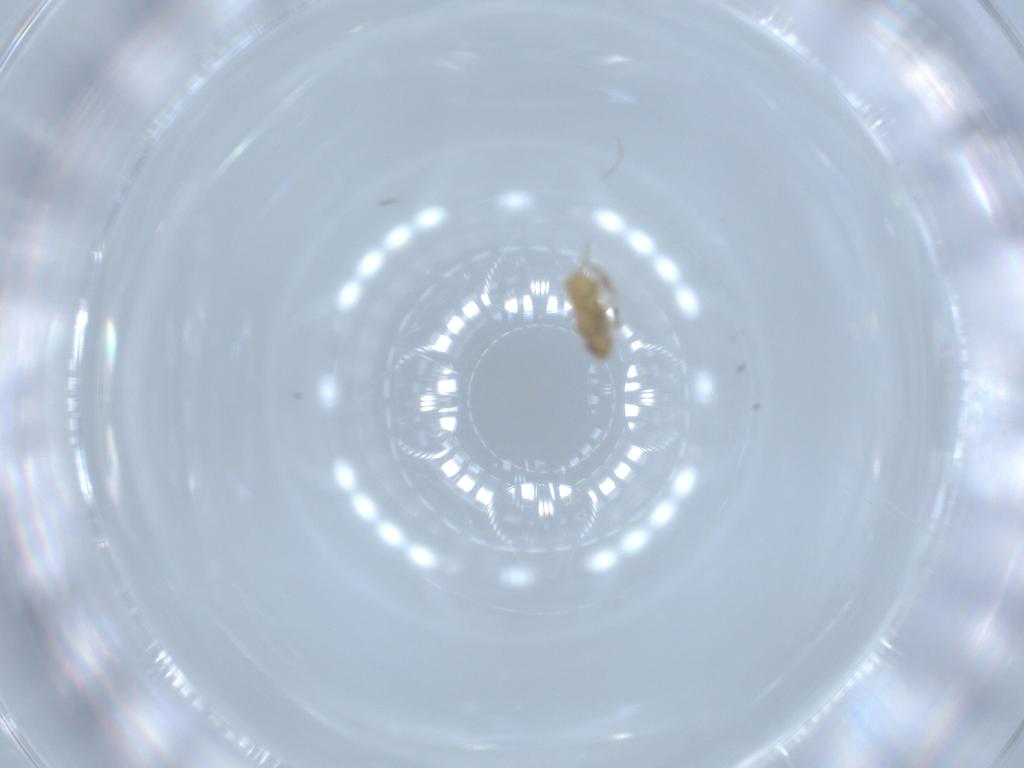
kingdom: Animalia
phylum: Arthropoda
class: Insecta
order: Hemiptera
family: Delphacidae
